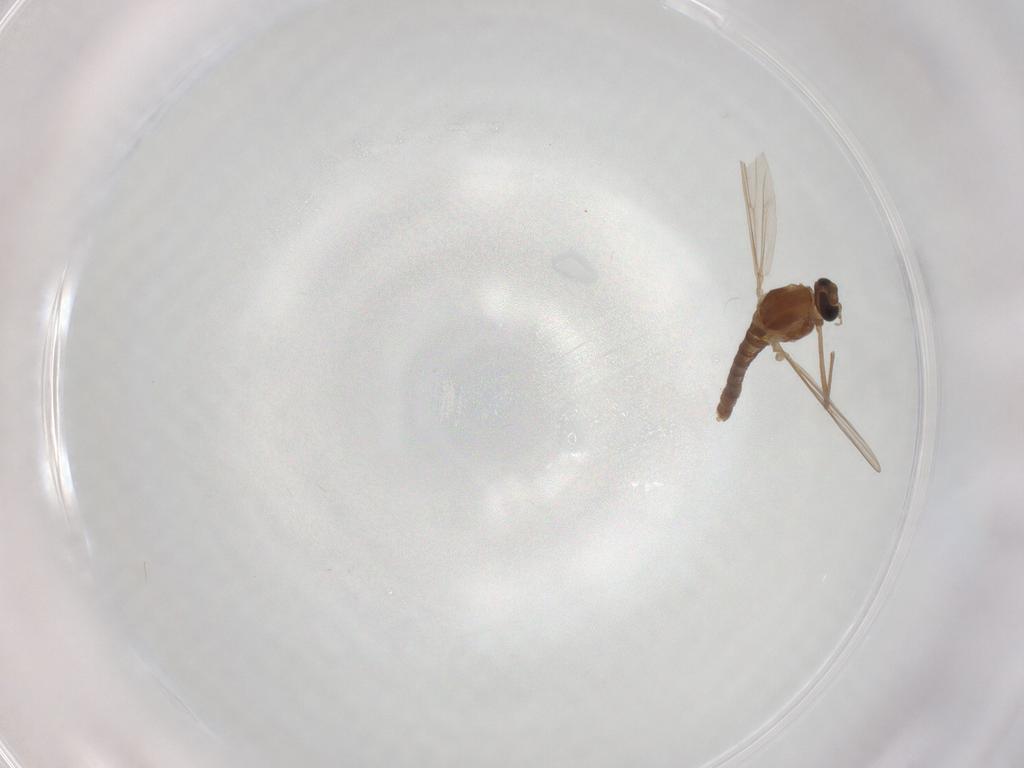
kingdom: Animalia
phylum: Arthropoda
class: Insecta
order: Diptera
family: Chironomidae
